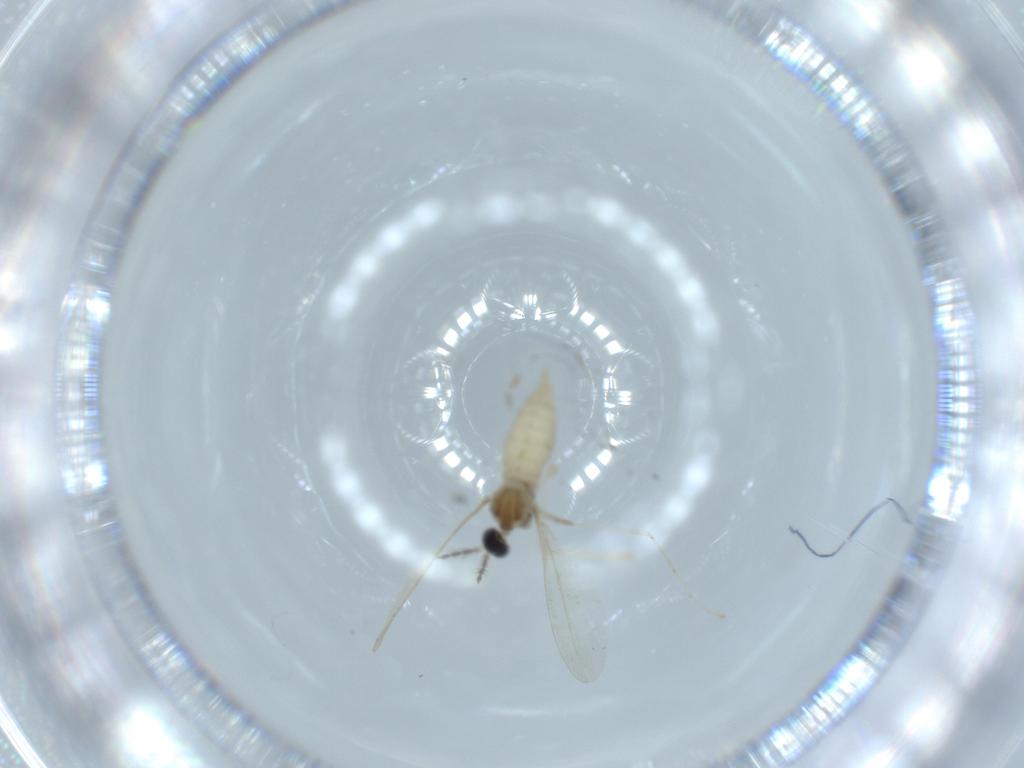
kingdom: Animalia
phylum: Arthropoda
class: Insecta
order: Diptera
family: Cecidomyiidae
